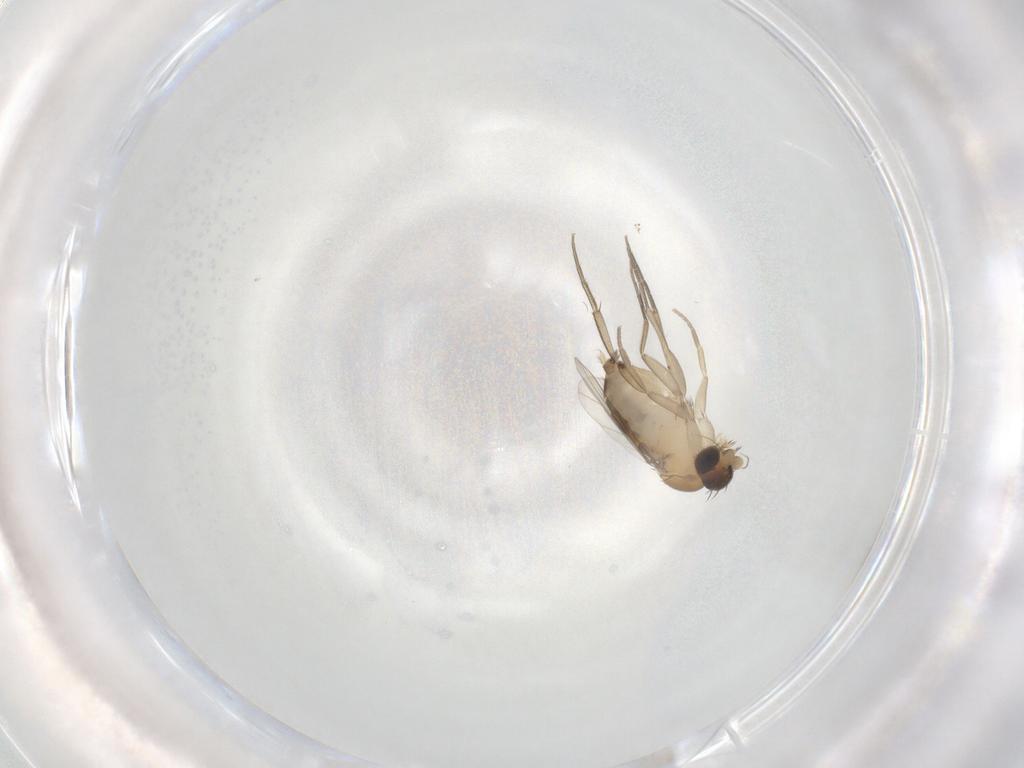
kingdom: Animalia
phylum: Arthropoda
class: Insecta
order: Diptera
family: Phoridae
